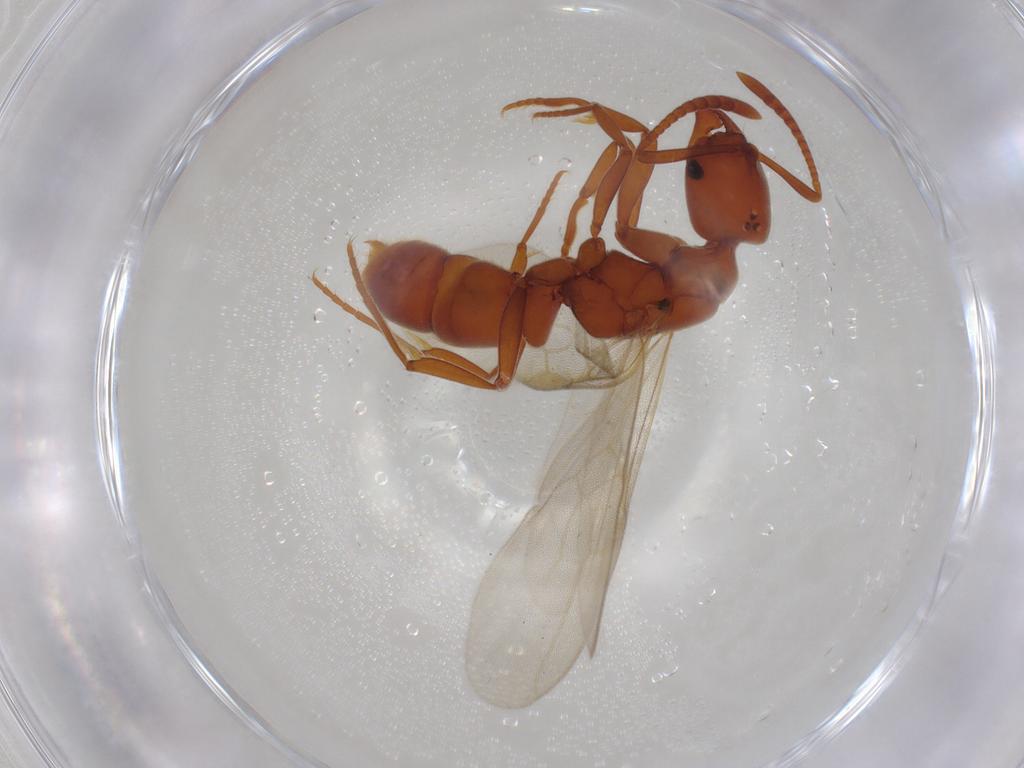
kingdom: Animalia
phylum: Arthropoda
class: Insecta
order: Hymenoptera
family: Formicidae
